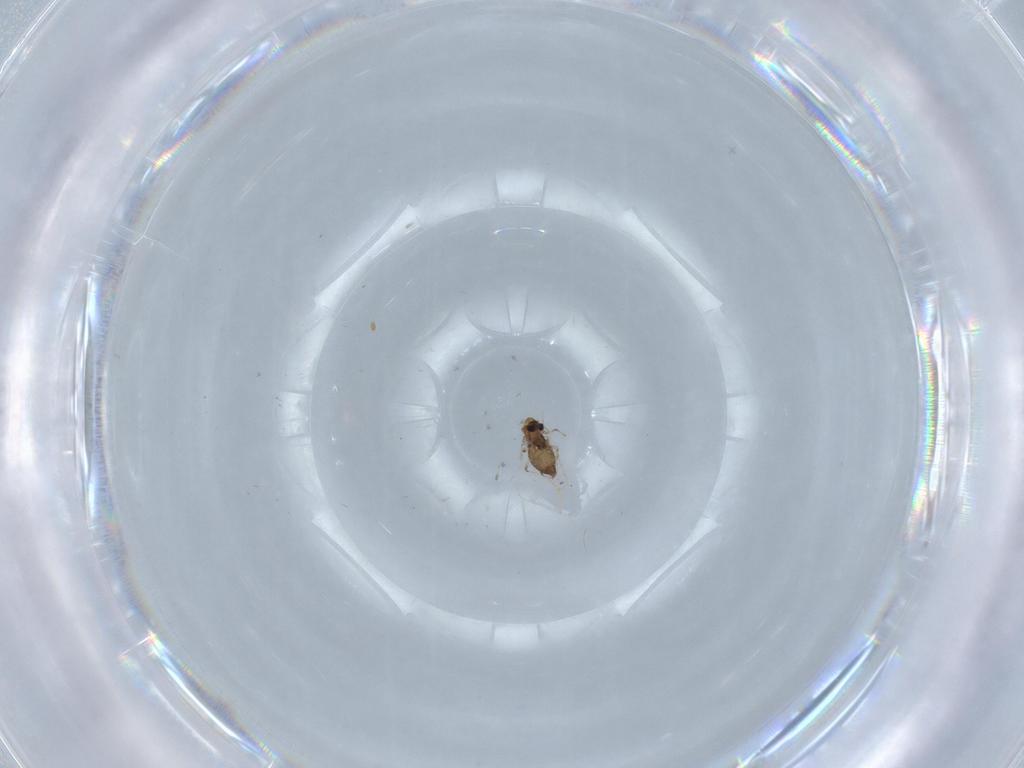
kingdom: Animalia
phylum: Arthropoda
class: Insecta
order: Diptera
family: Chironomidae
